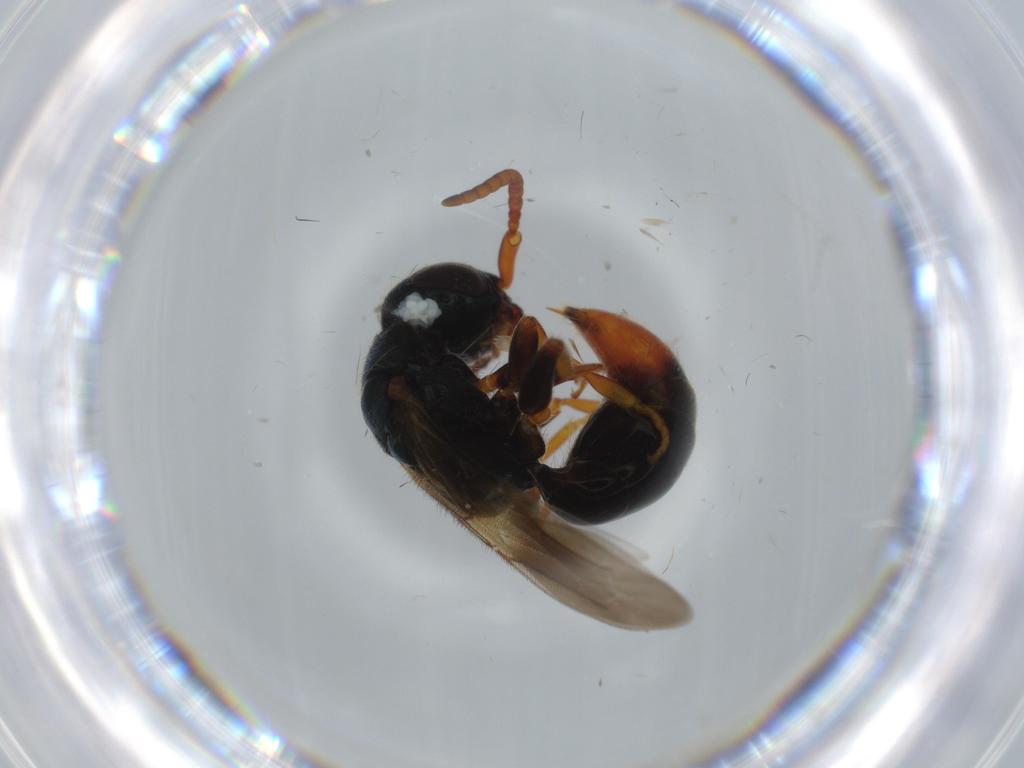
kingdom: Animalia
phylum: Arthropoda
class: Insecta
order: Hymenoptera
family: Bethylidae
